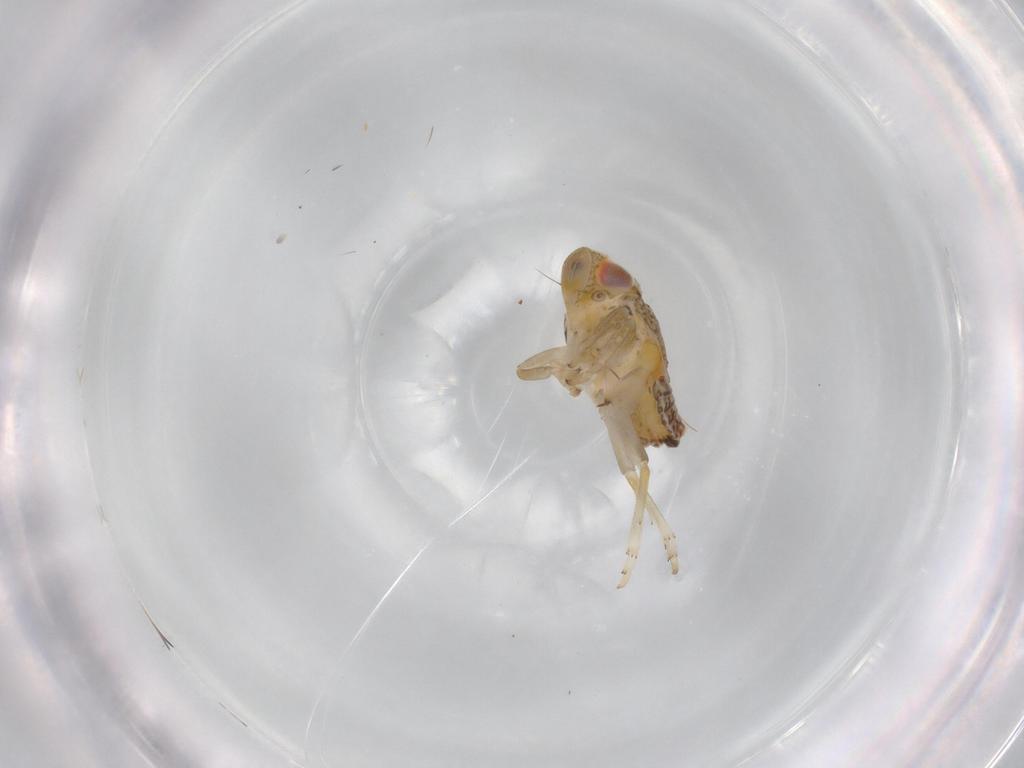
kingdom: Animalia
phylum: Arthropoda
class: Insecta
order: Hemiptera
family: Issidae
